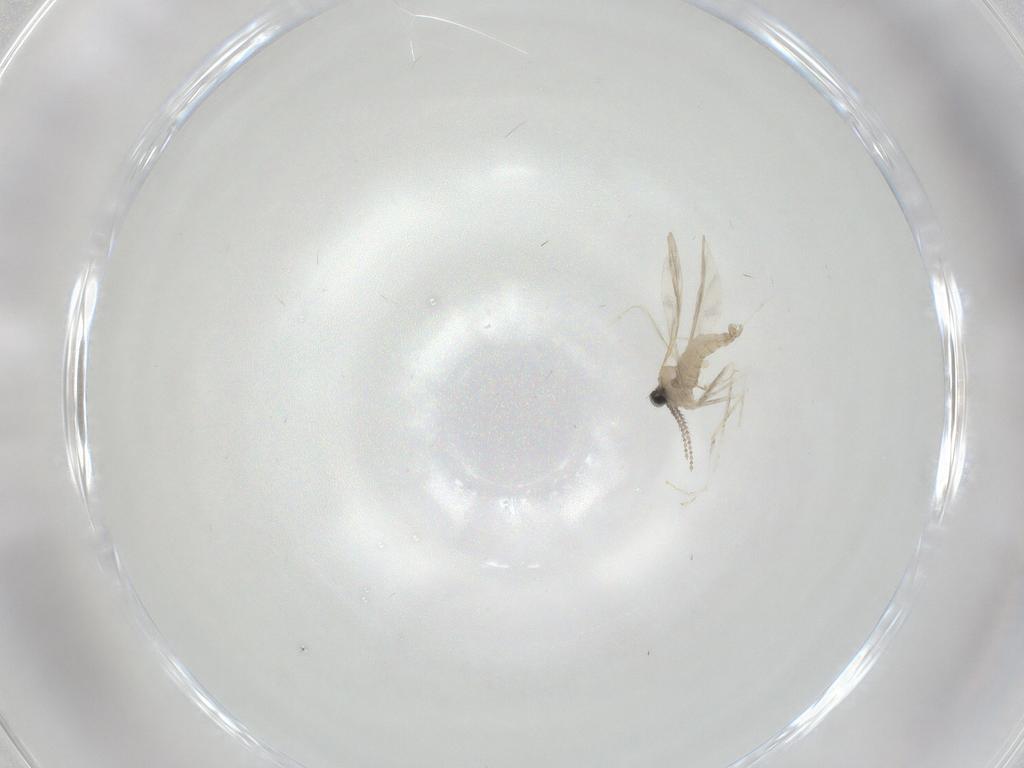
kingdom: Animalia
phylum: Arthropoda
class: Insecta
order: Diptera
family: Cecidomyiidae
